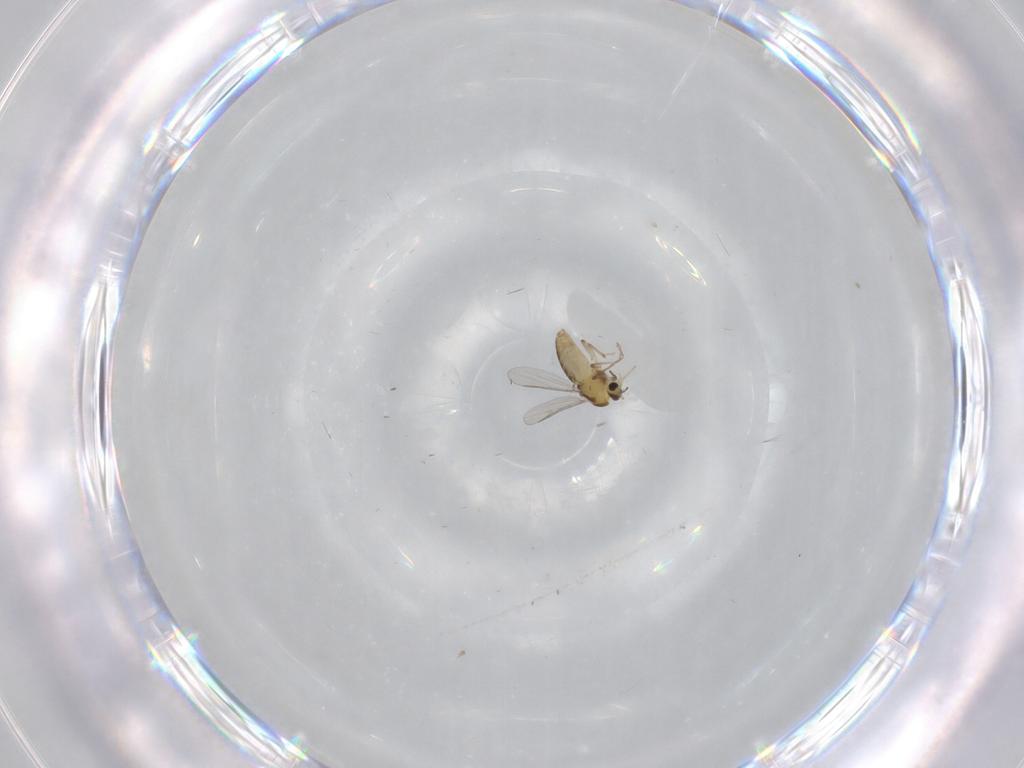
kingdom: Animalia
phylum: Arthropoda
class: Insecta
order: Diptera
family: Chironomidae
